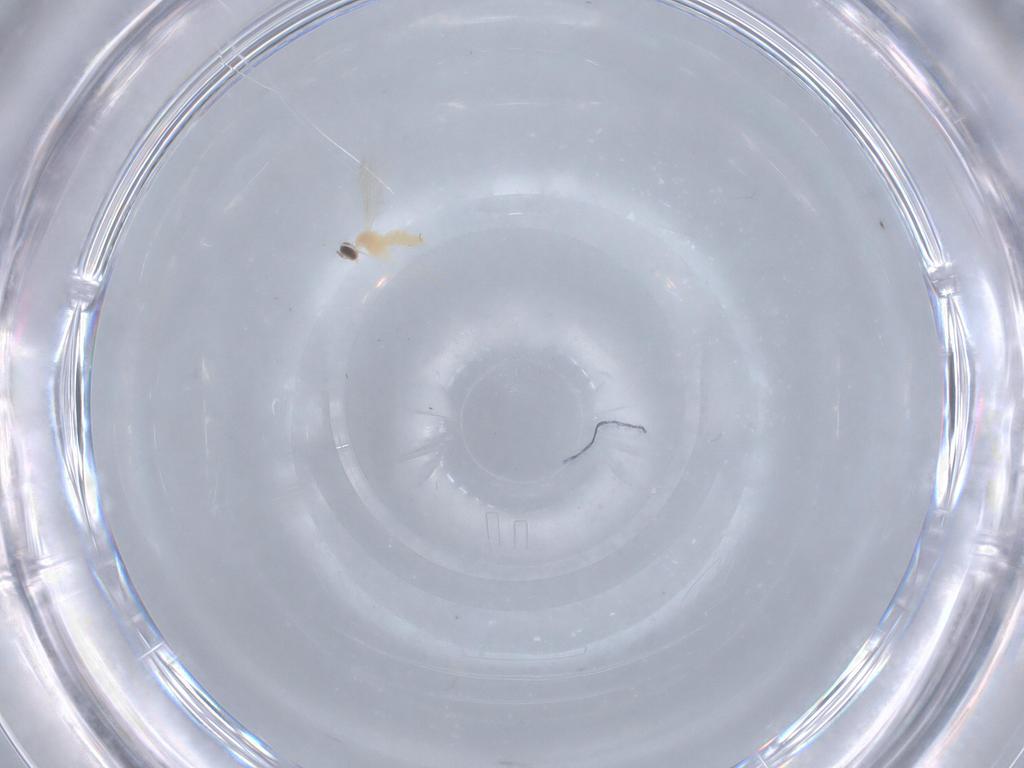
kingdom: Animalia
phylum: Arthropoda
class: Insecta
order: Diptera
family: Cecidomyiidae
